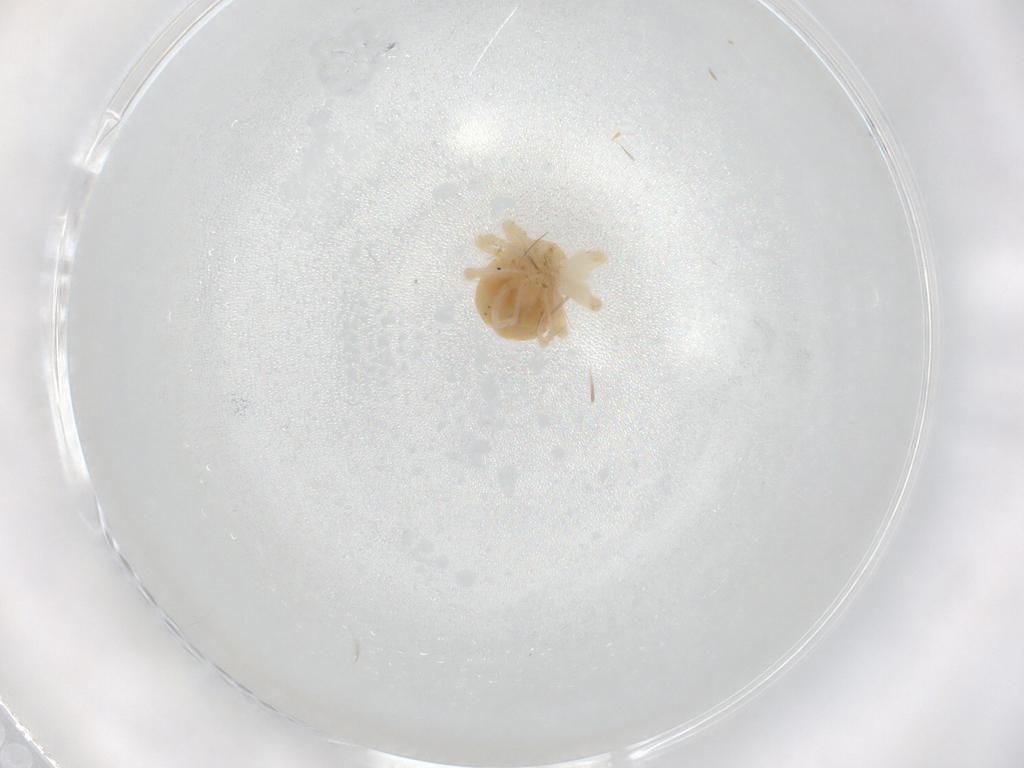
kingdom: Animalia
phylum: Arthropoda
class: Arachnida
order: Trombidiformes
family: Anystidae
